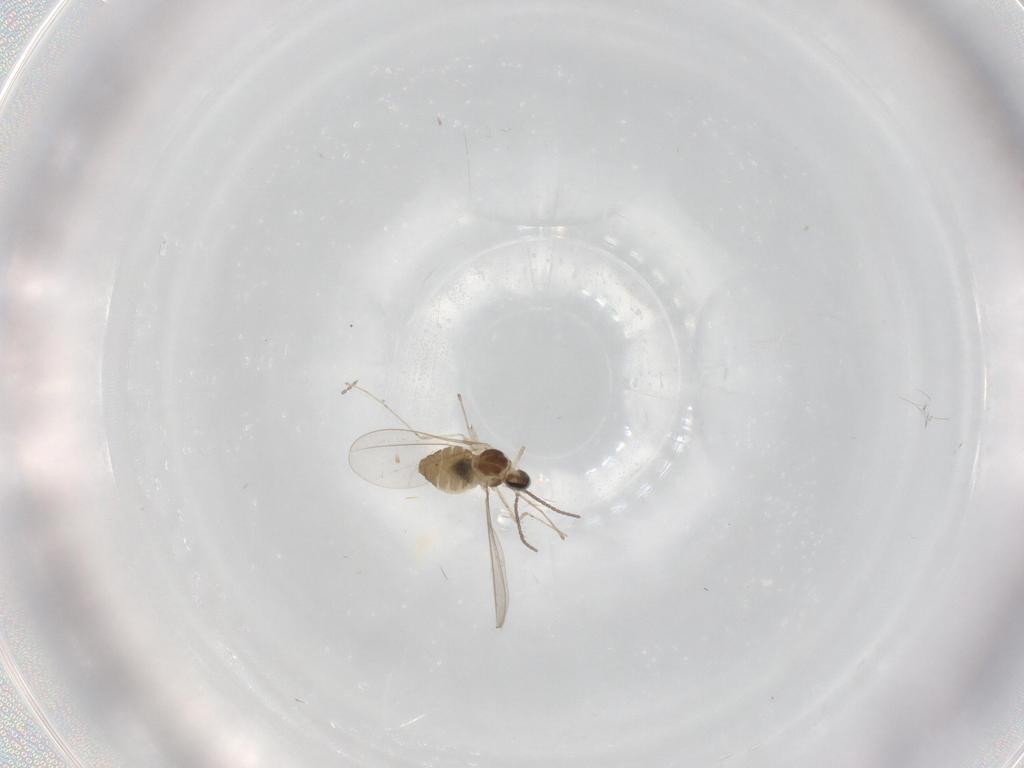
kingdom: Animalia
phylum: Arthropoda
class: Insecta
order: Diptera
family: Cecidomyiidae
